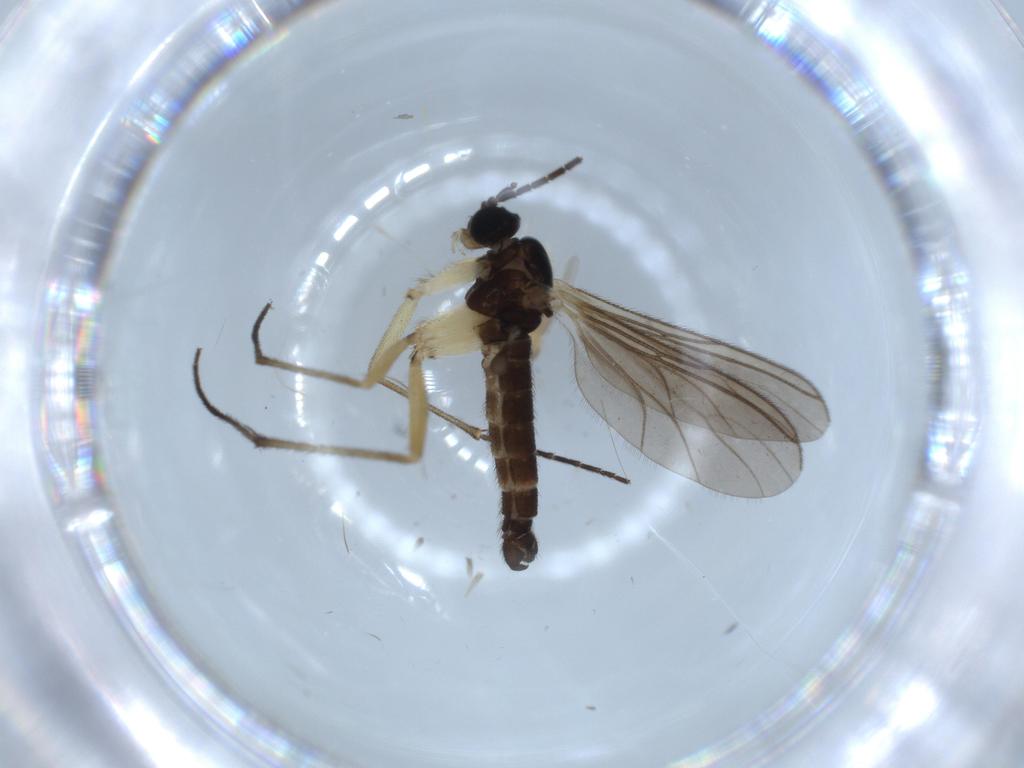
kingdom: Animalia
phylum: Arthropoda
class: Insecta
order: Diptera
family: Sciaridae
